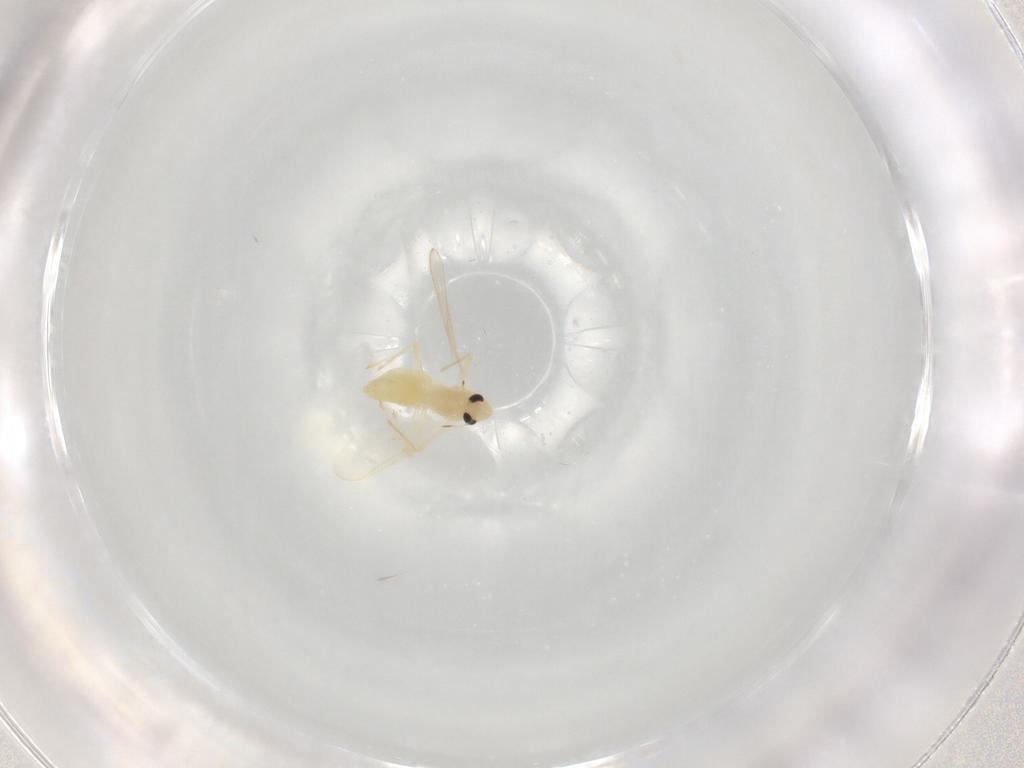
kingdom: Animalia
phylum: Arthropoda
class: Insecta
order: Diptera
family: Chironomidae
